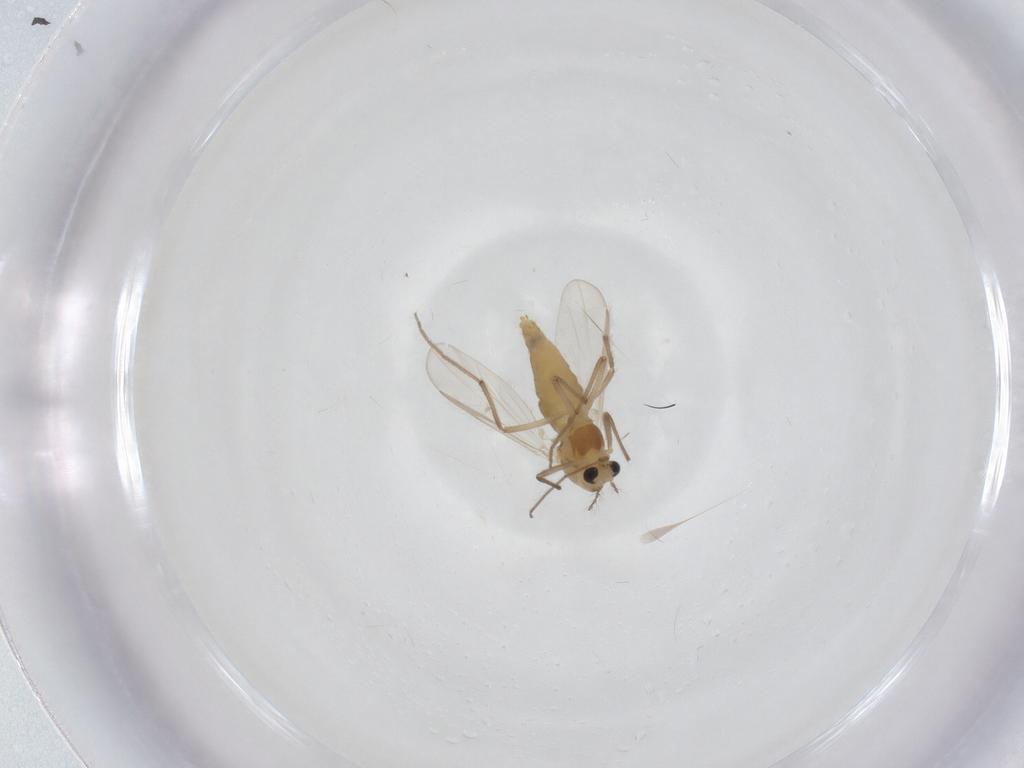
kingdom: Animalia
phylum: Arthropoda
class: Insecta
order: Diptera
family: Chironomidae
